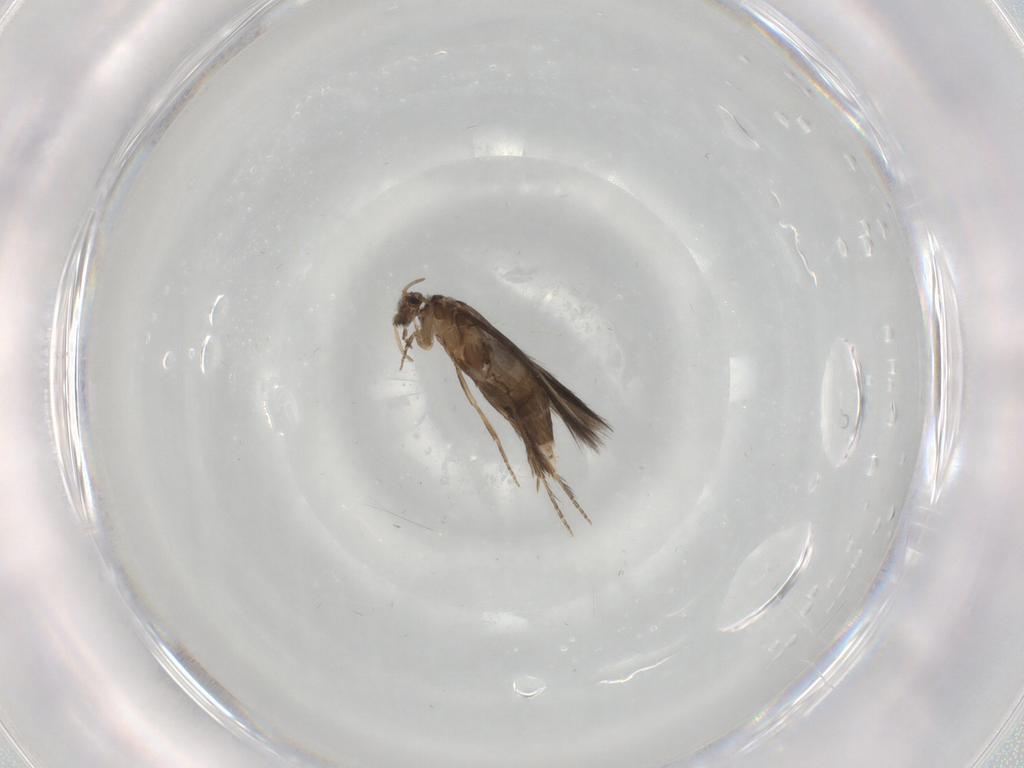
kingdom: Animalia
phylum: Arthropoda
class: Insecta
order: Trichoptera
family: Hydroptilidae
